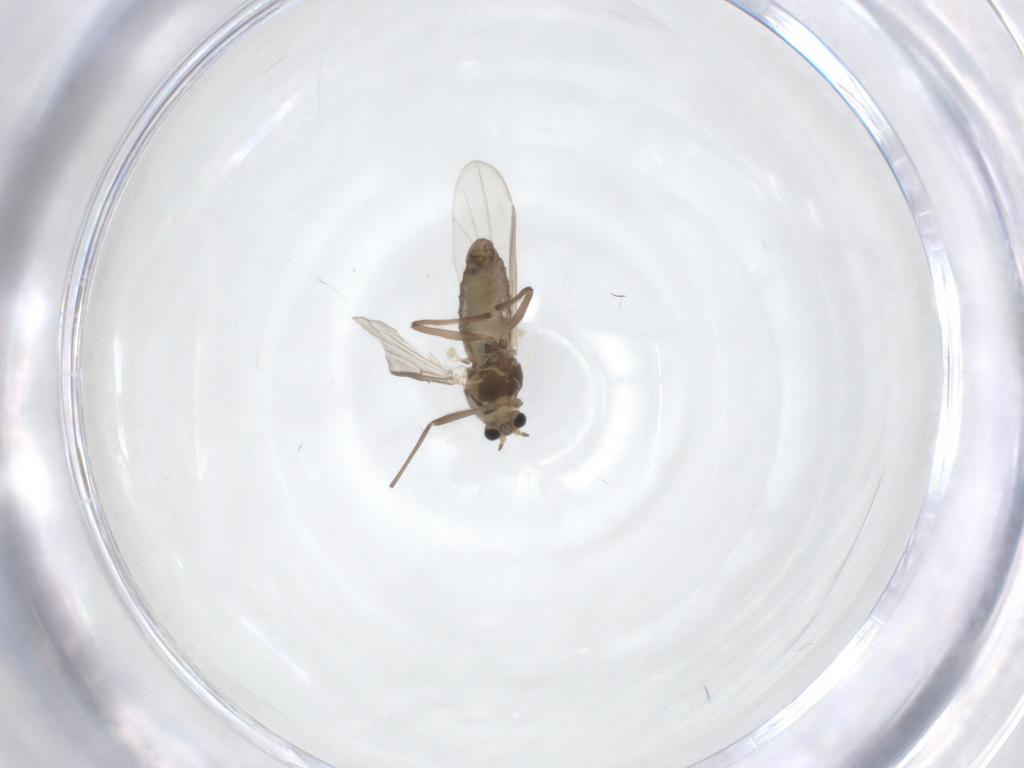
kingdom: Animalia
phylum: Arthropoda
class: Insecta
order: Diptera
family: Chironomidae
